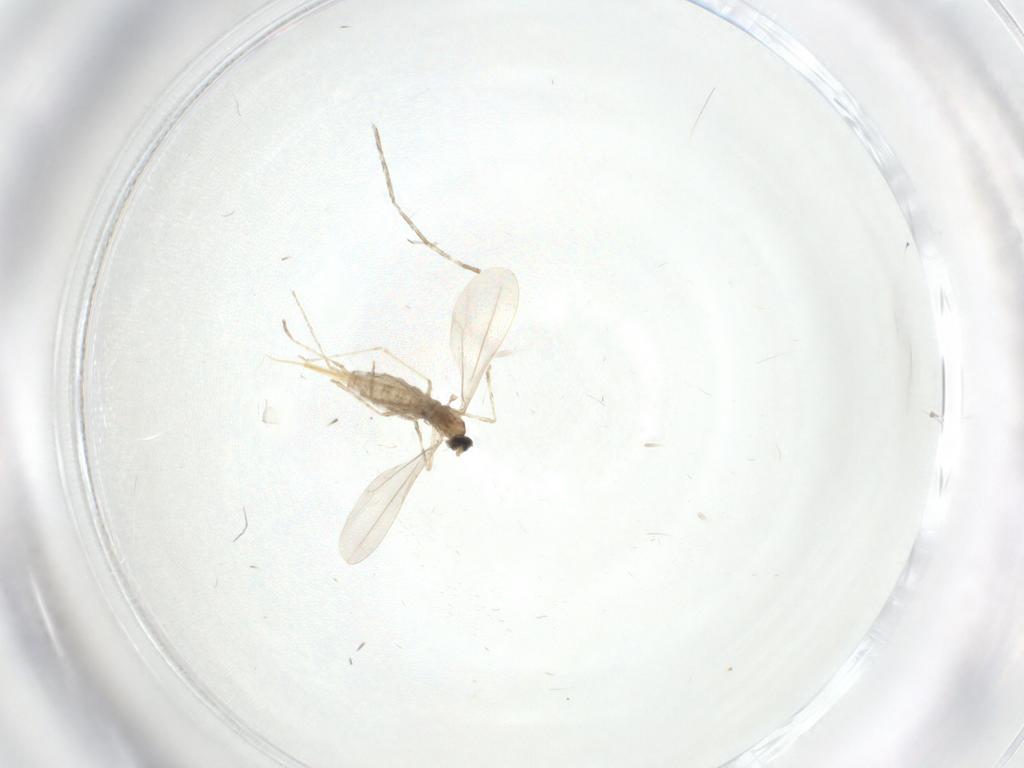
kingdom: Animalia
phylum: Arthropoda
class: Insecta
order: Diptera
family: Cecidomyiidae
